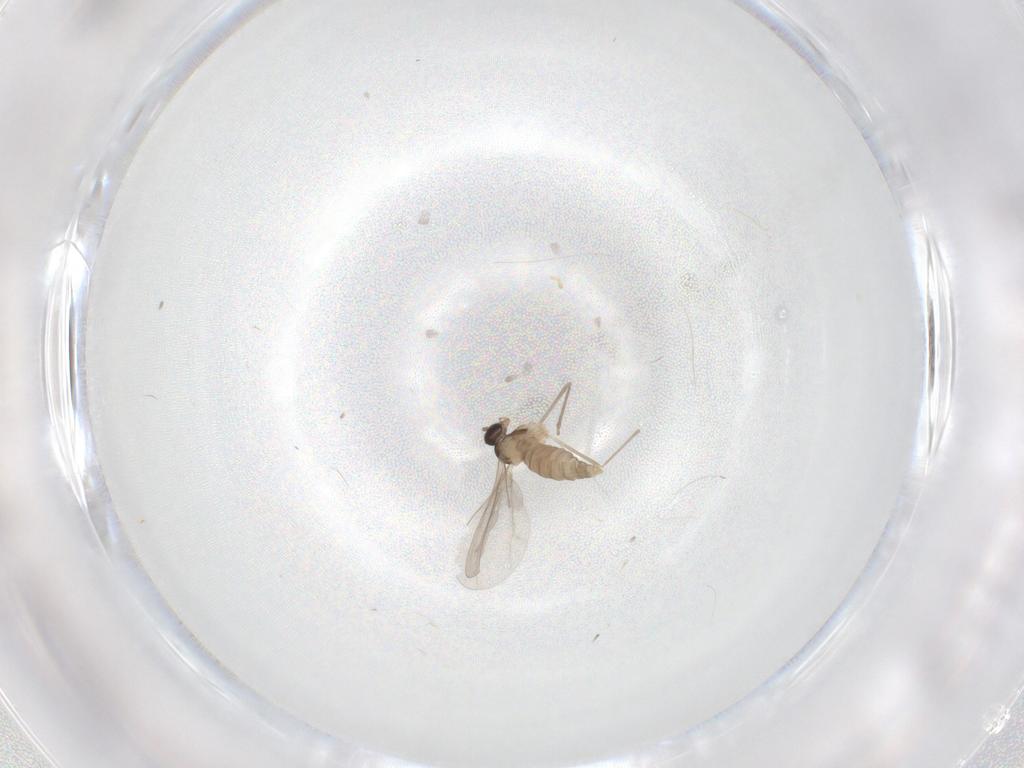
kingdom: Animalia
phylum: Arthropoda
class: Insecta
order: Diptera
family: Cecidomyiidae
